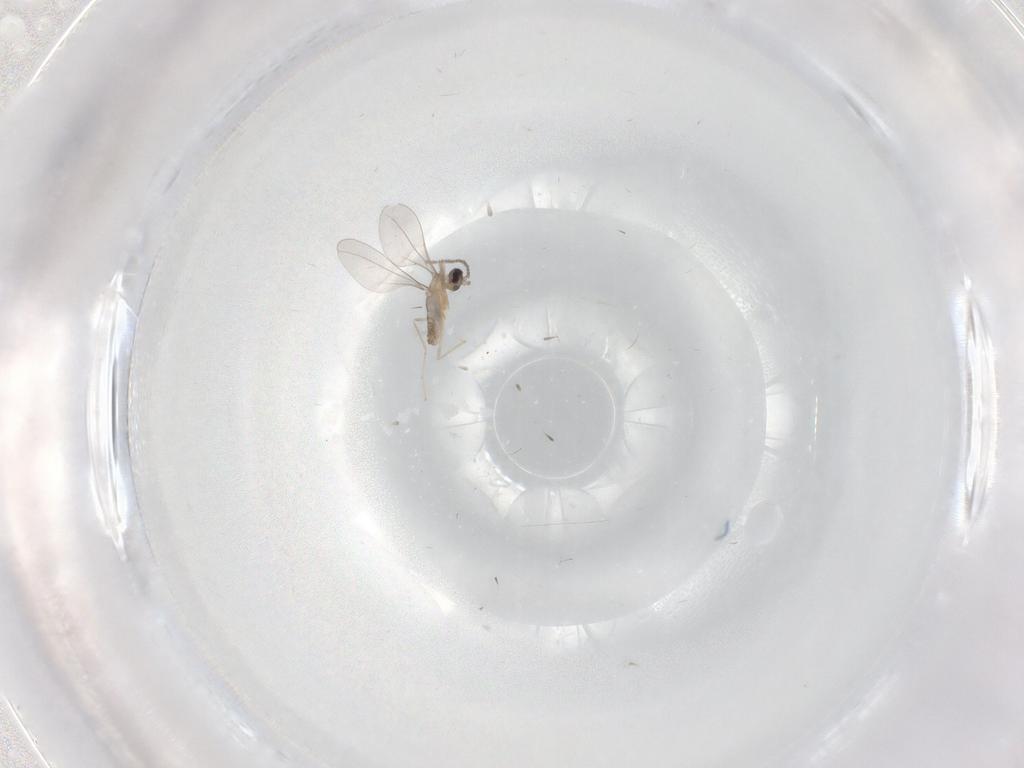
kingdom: Animalia
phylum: Arthropoda
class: Insecta
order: Diptera
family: Cecidomyiidae
